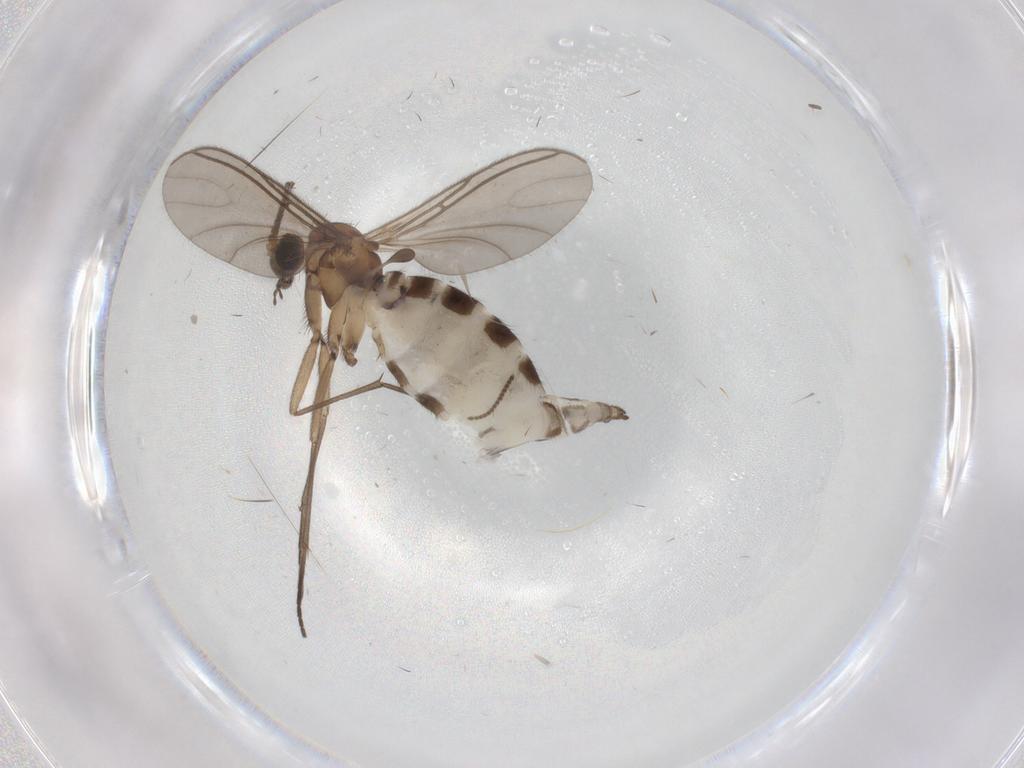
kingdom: Animalia
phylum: Arthropoda
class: Insecta
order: Diptera
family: Sciaridae
